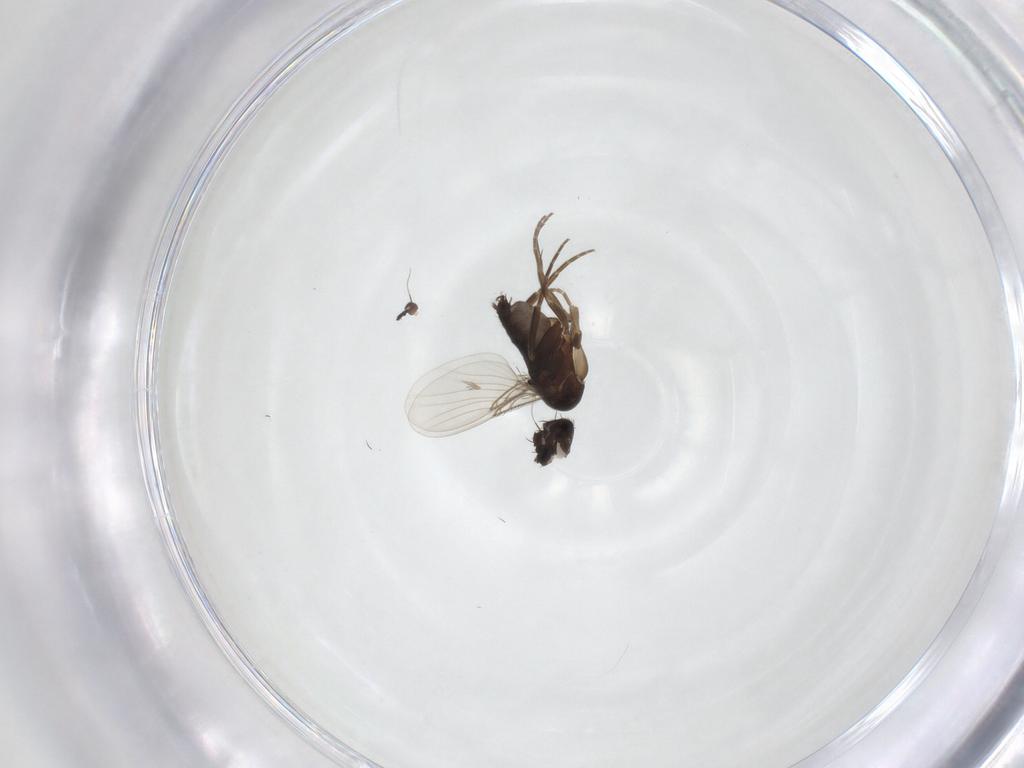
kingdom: Animalia
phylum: Arthropoda
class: Insecta
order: Diptera
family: Phoridae
